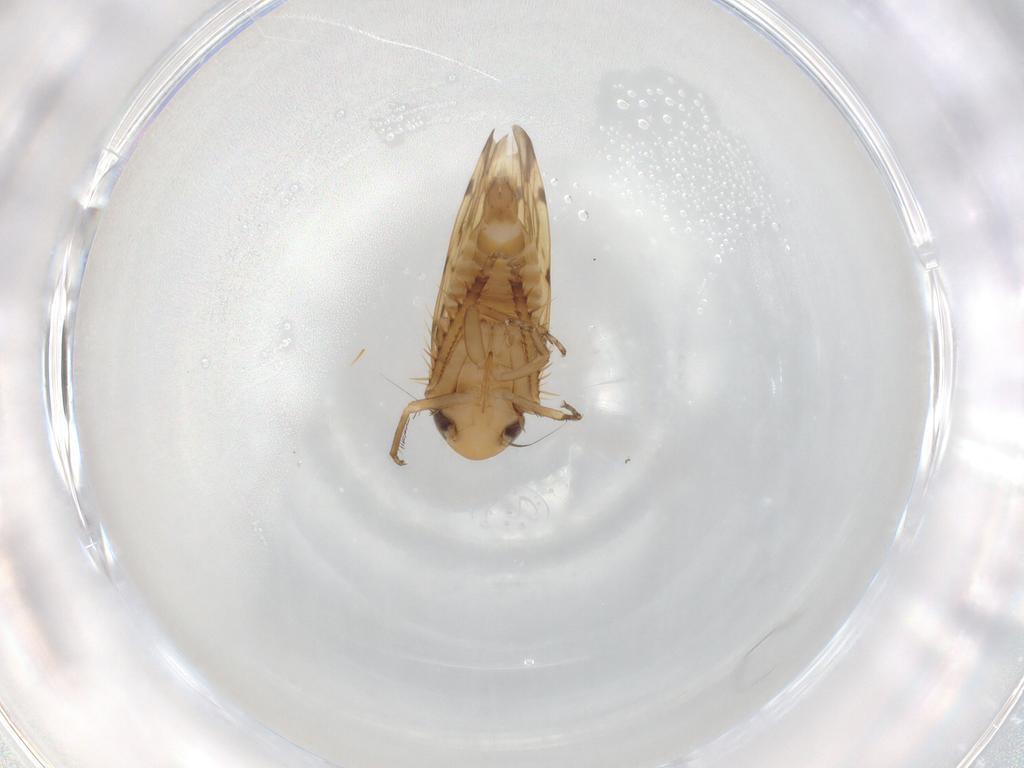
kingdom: Animalia
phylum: Arthropoda
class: Insecta
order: Hemiptera
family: Cicadellidae
